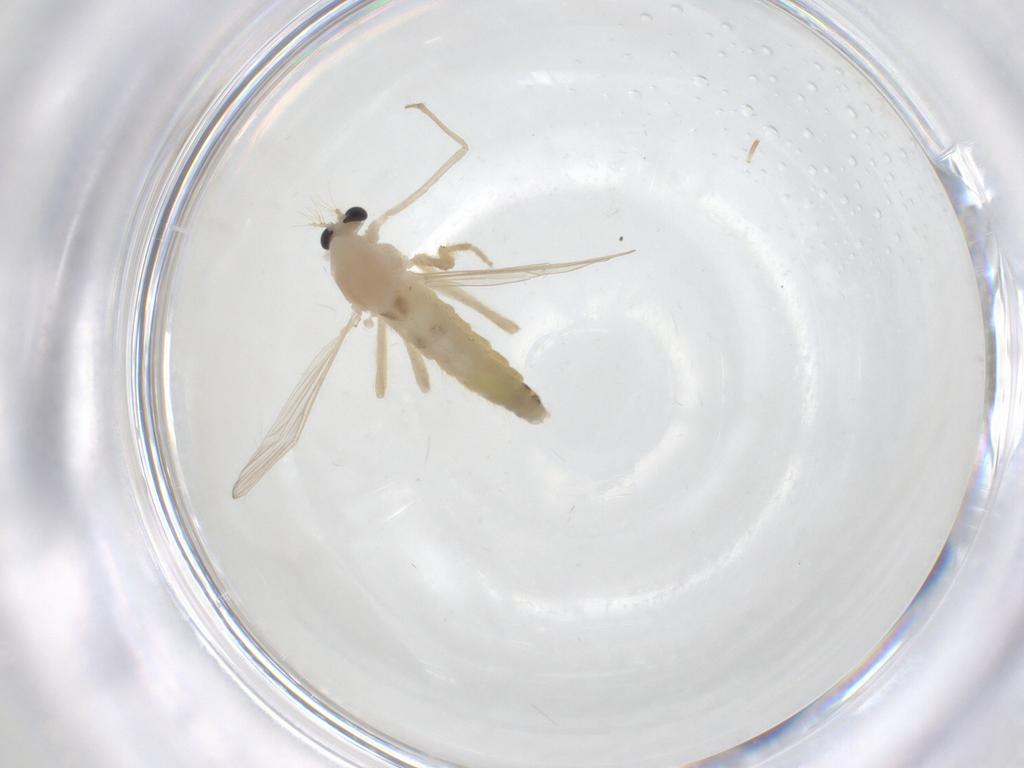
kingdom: Animalia
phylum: Arthropoda
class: Insecta
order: Diptera
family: Chironomidae
